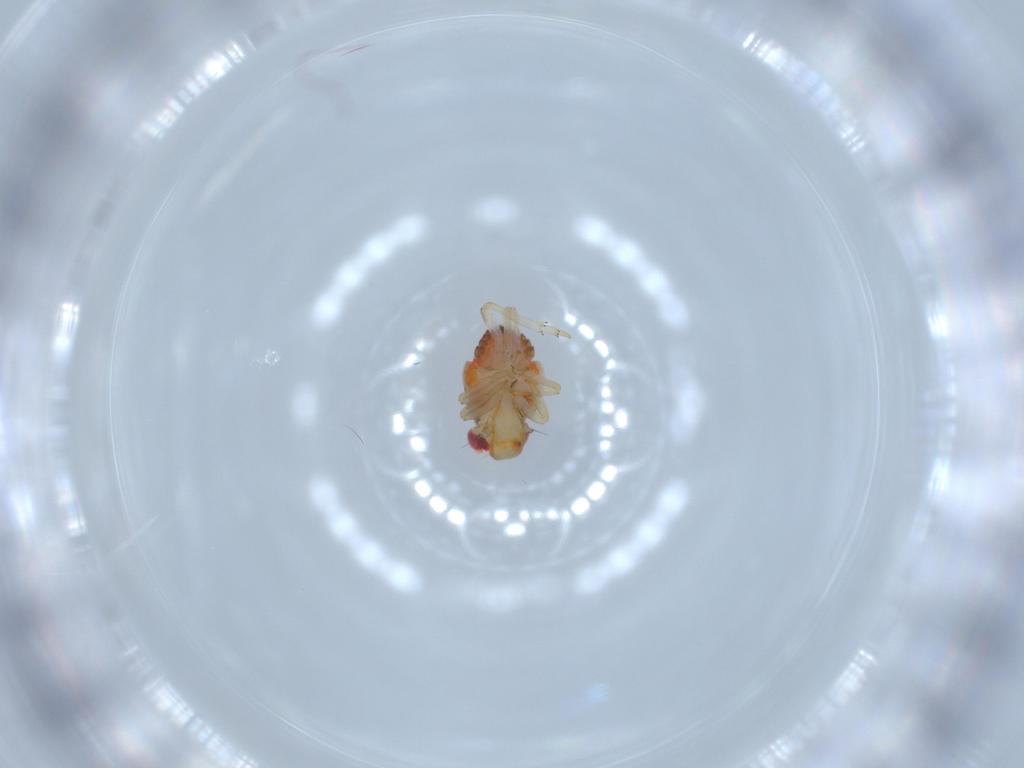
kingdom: Animalia
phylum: Arthropoda
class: Insecta
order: Hemiptera
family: Issidae
